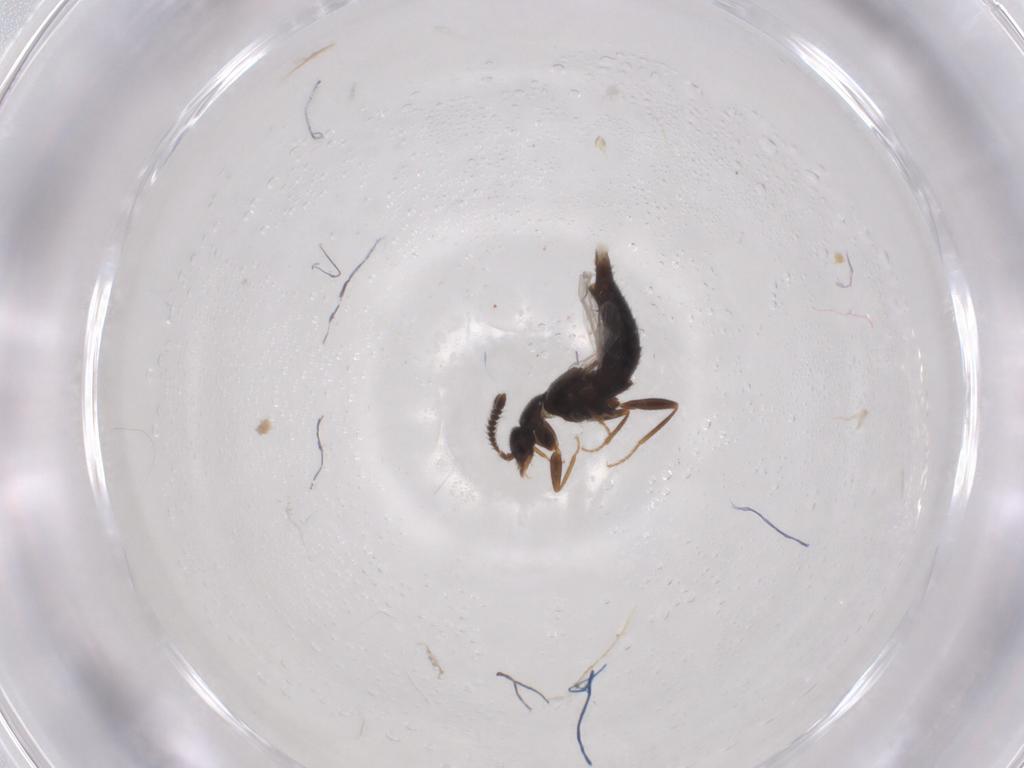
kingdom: Animalia
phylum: Arthropoda
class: Insecta
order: Coleoptera
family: Staphylinidae
